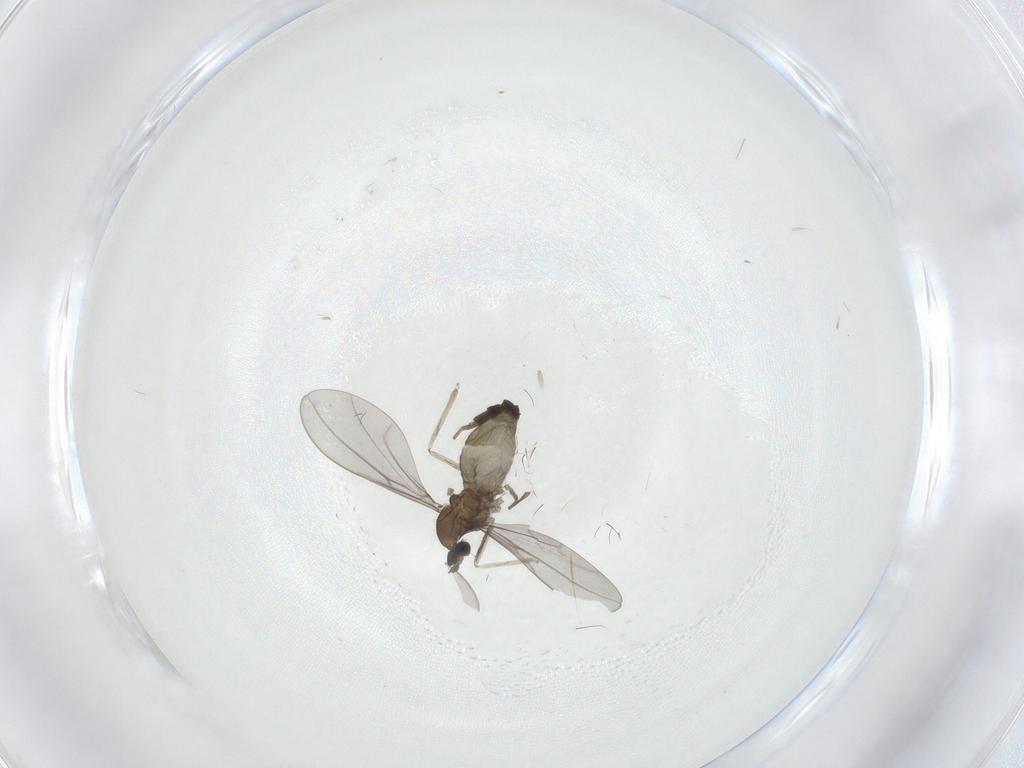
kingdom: Animalia
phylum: Arthropoda
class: Insecta
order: Diptera
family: Cecidomyiidae
